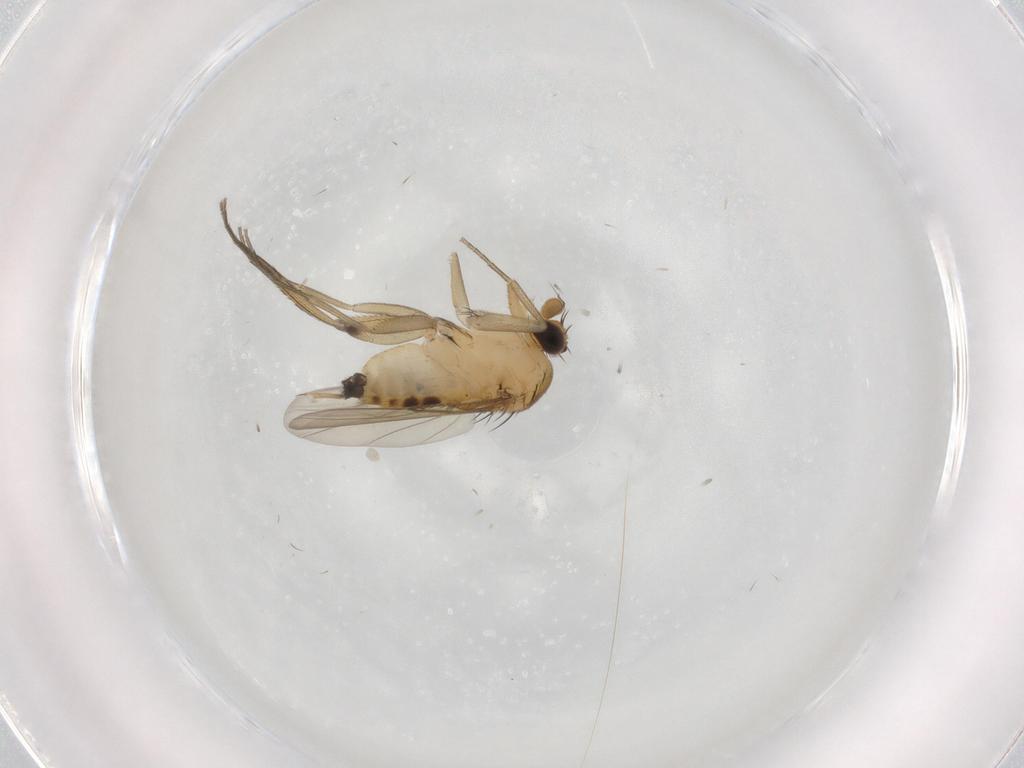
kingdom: Animalia
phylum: Arthropoda
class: Insecta
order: Diptera
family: Phoridae
